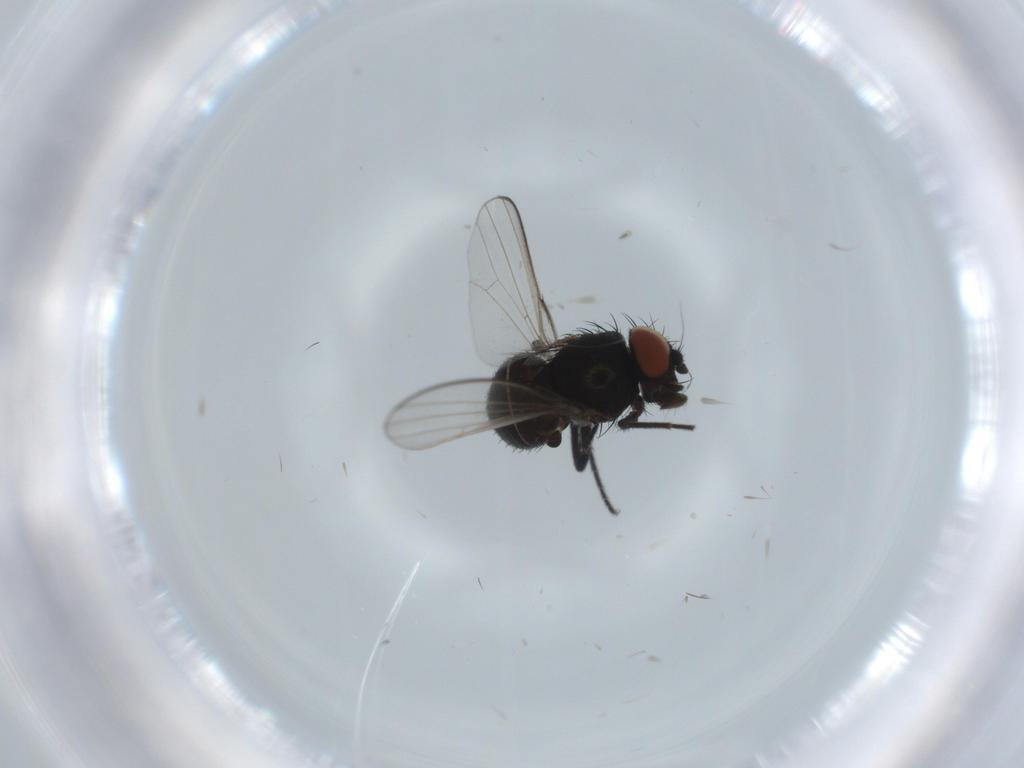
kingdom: Animalia
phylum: Arthropoda
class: Insecta
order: Diptera
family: Milichiidae
